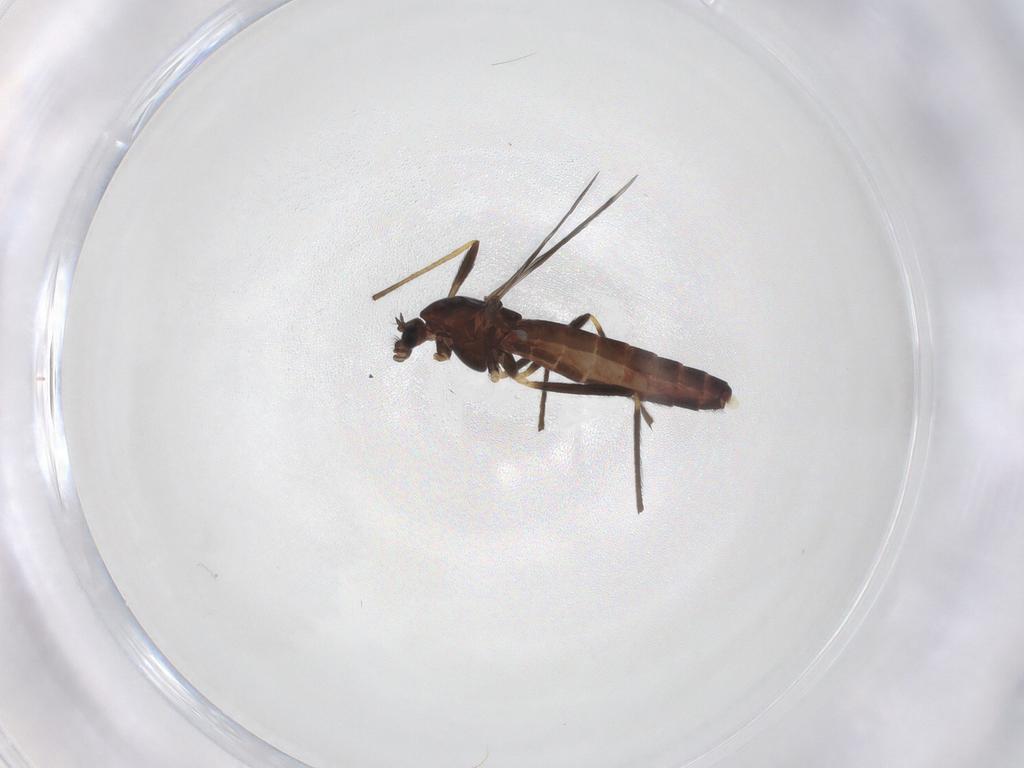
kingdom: Animalia
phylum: Arthropoda
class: Insecta
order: Diptera
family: Chironomidae
